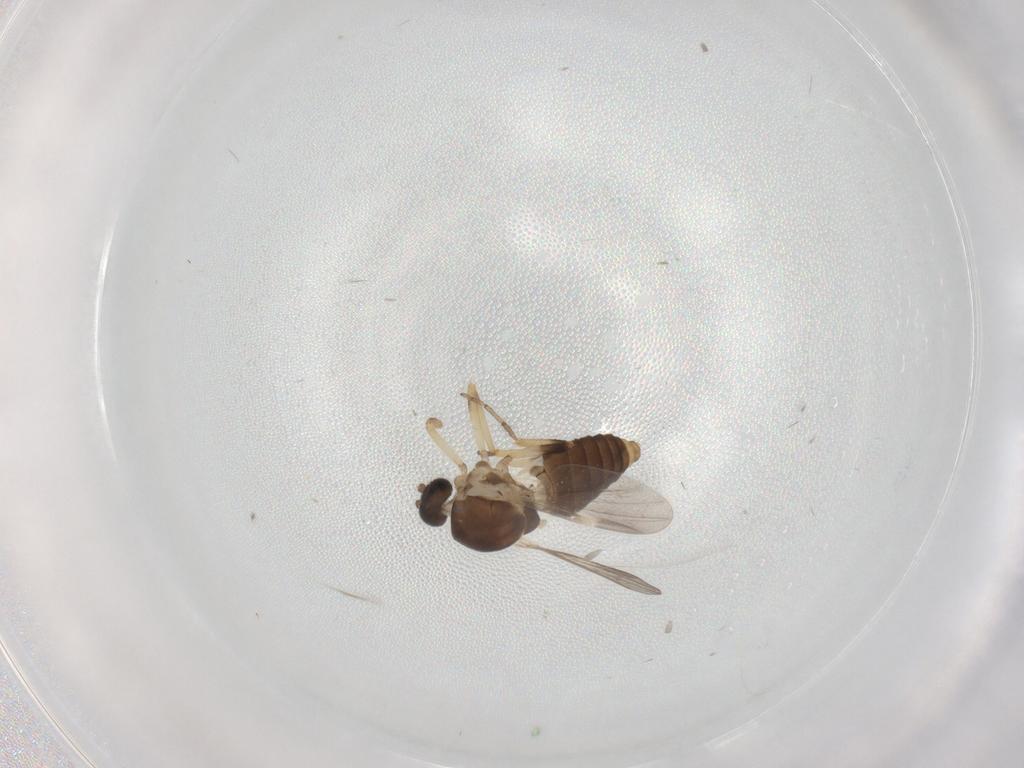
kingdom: Animalia
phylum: Arthropoda
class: Insecta
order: Diptera
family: Ceratopogonidae
